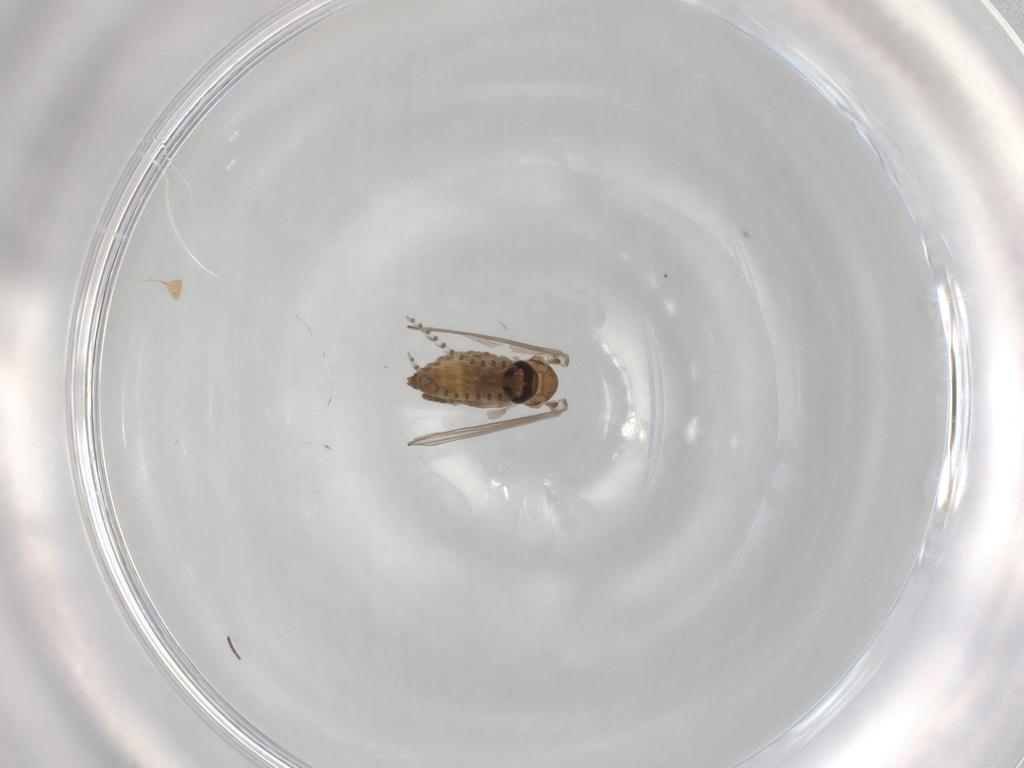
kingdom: Animalia
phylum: Arthropoda
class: Insecta
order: Diptera
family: Psychodidae
